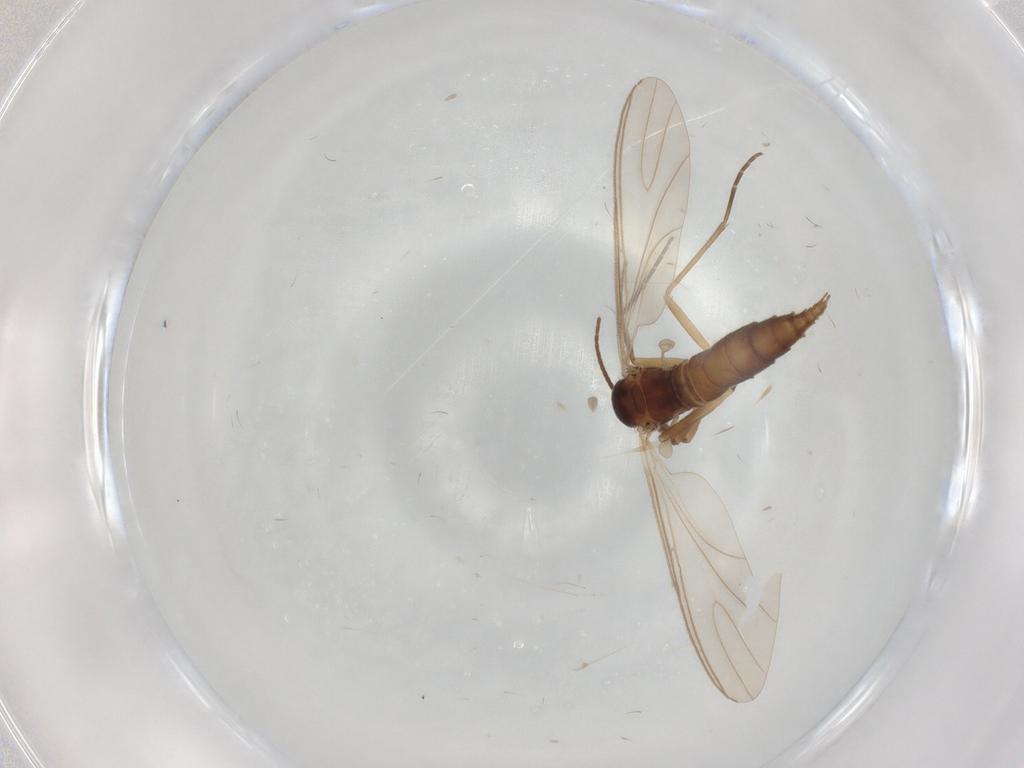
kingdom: Animalia
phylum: Arthropoda
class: Insecta
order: Diptera
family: Sciaridae
